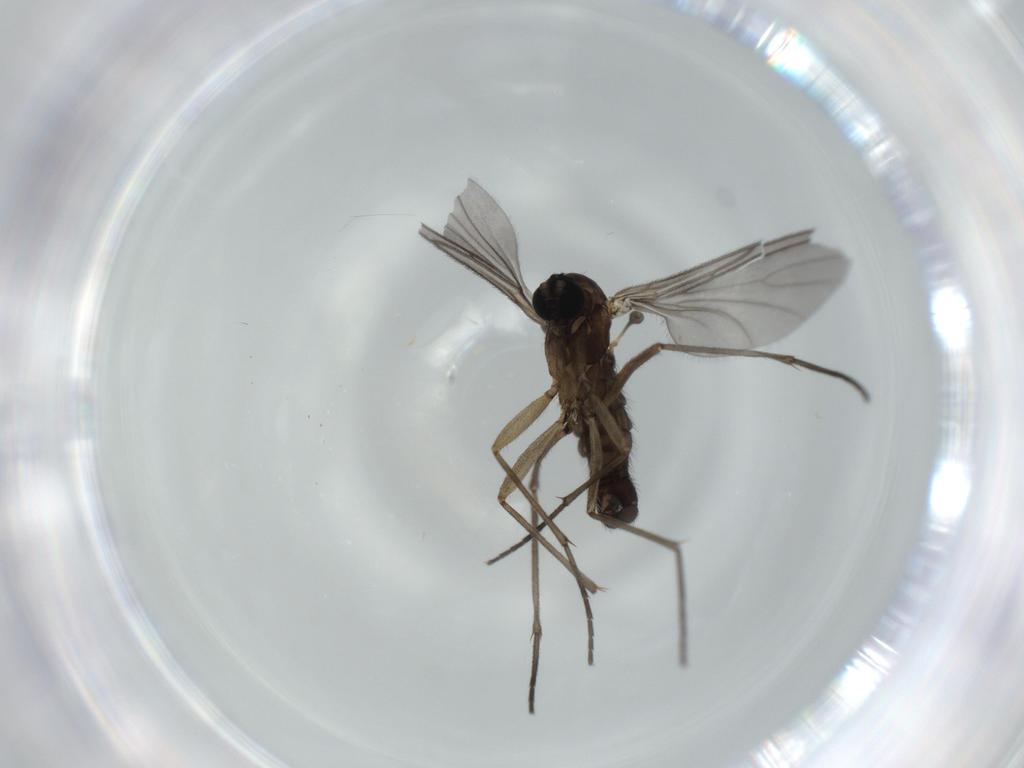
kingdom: Animalia
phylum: Arthropoda
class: Insecta
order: Diptera
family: Sciaridae
